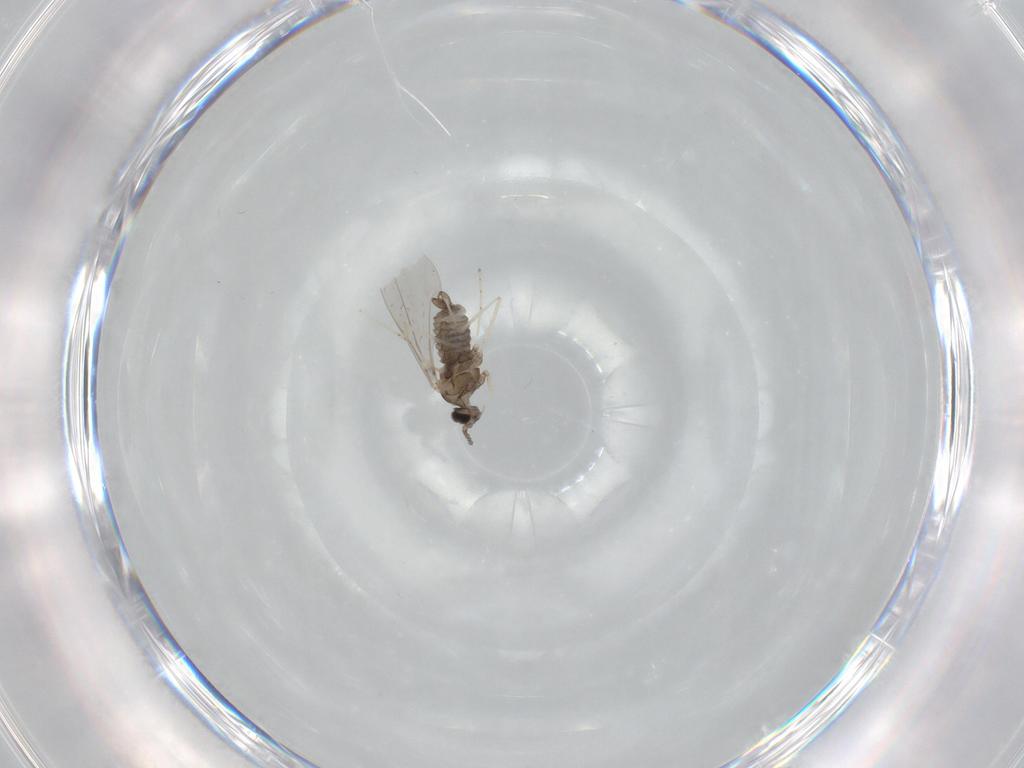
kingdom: Animalia
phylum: Arthropoda
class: Insecta
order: Diptera
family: Cecidomyiidae
